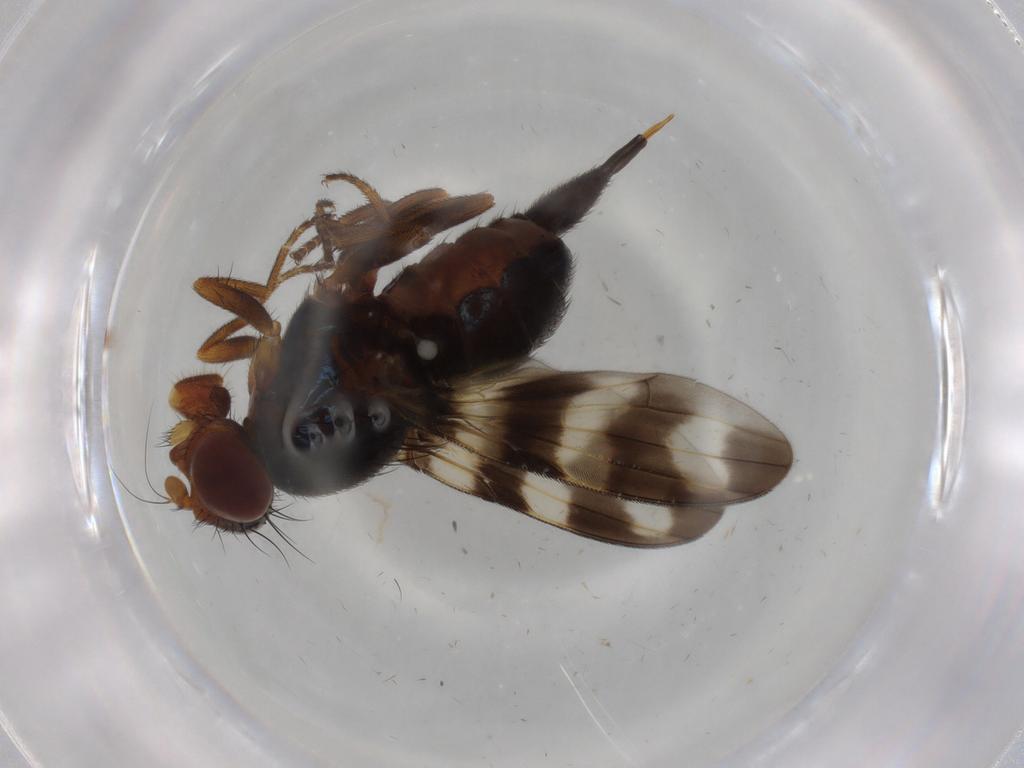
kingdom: Animalia
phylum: Arthropoda
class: Insecta
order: Diptera
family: Ulidiidae
